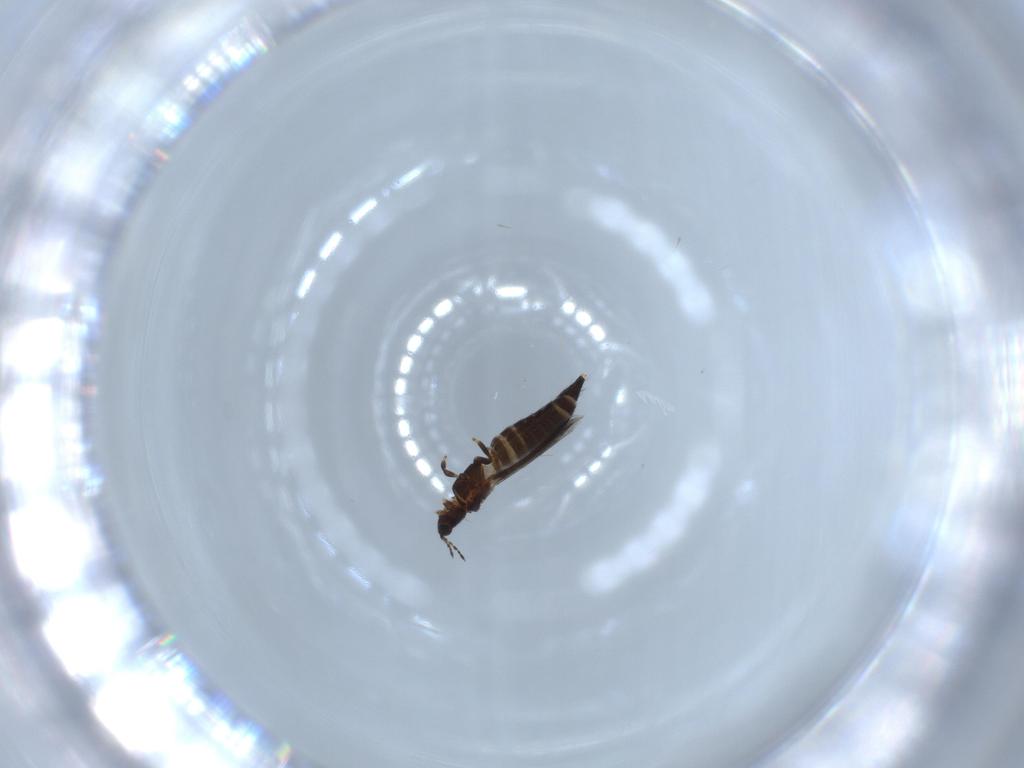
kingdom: Animalia
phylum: Arthropoda
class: Insecta
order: Thysanoptera
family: Thripidae
